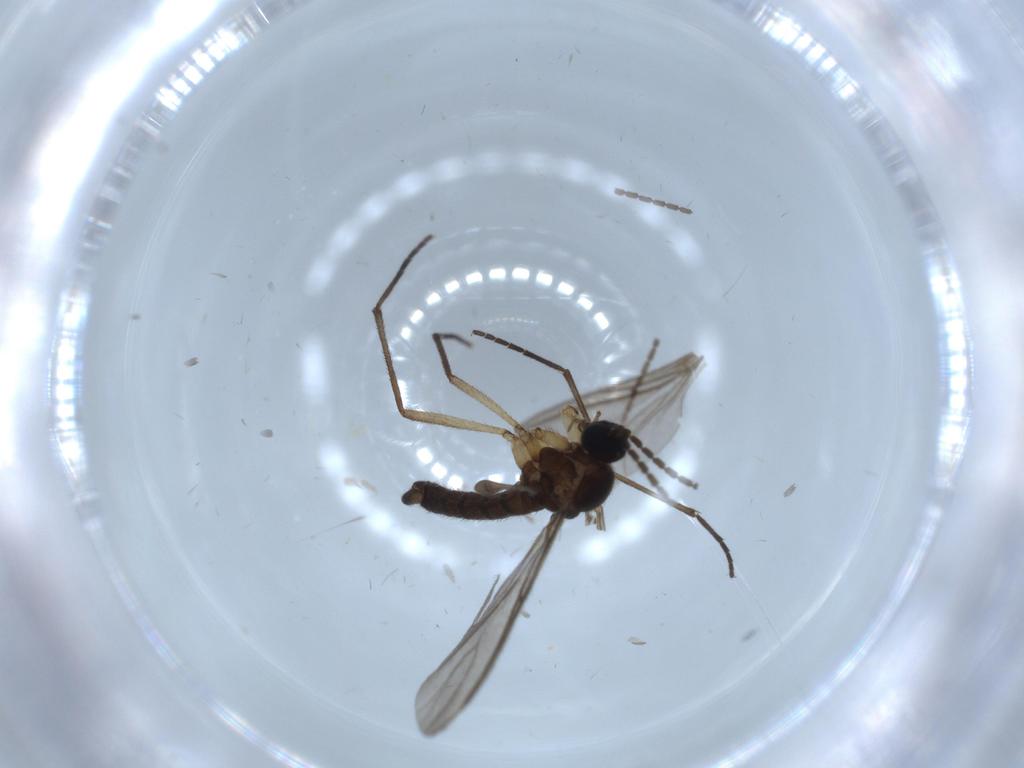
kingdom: Animalia
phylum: Arthropoda
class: Insecta
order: Diptera
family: Sciaridae
